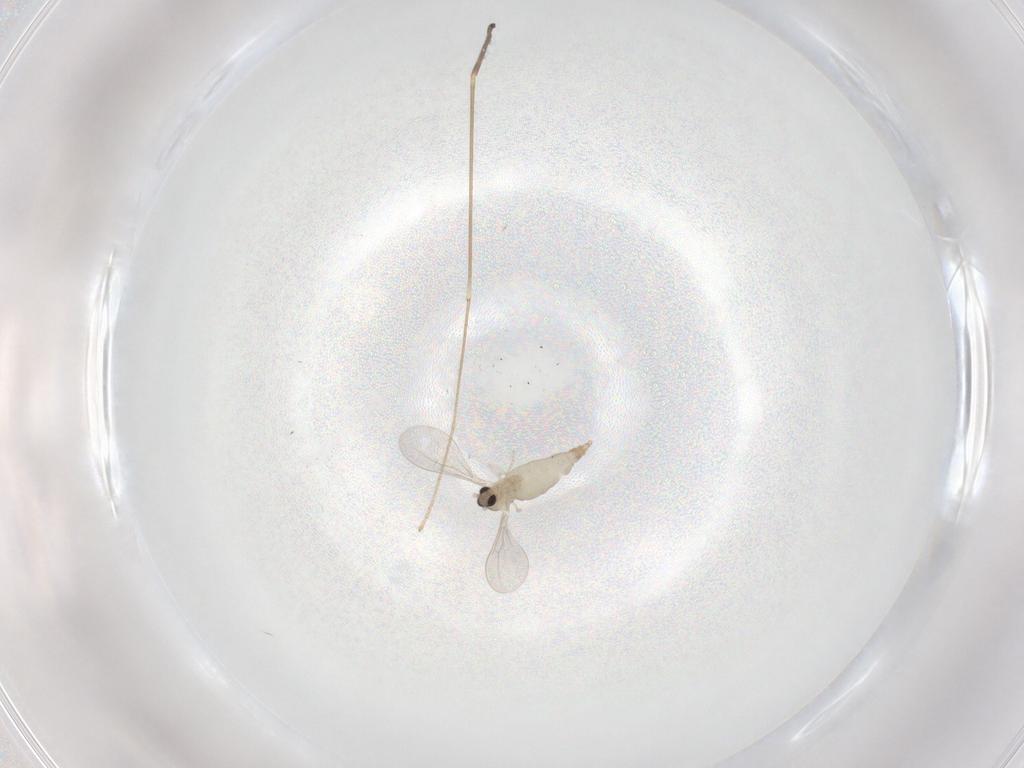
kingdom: Animalia
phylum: Arthropoda
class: Insecta
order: Diptera
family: Cecidomyiidae
